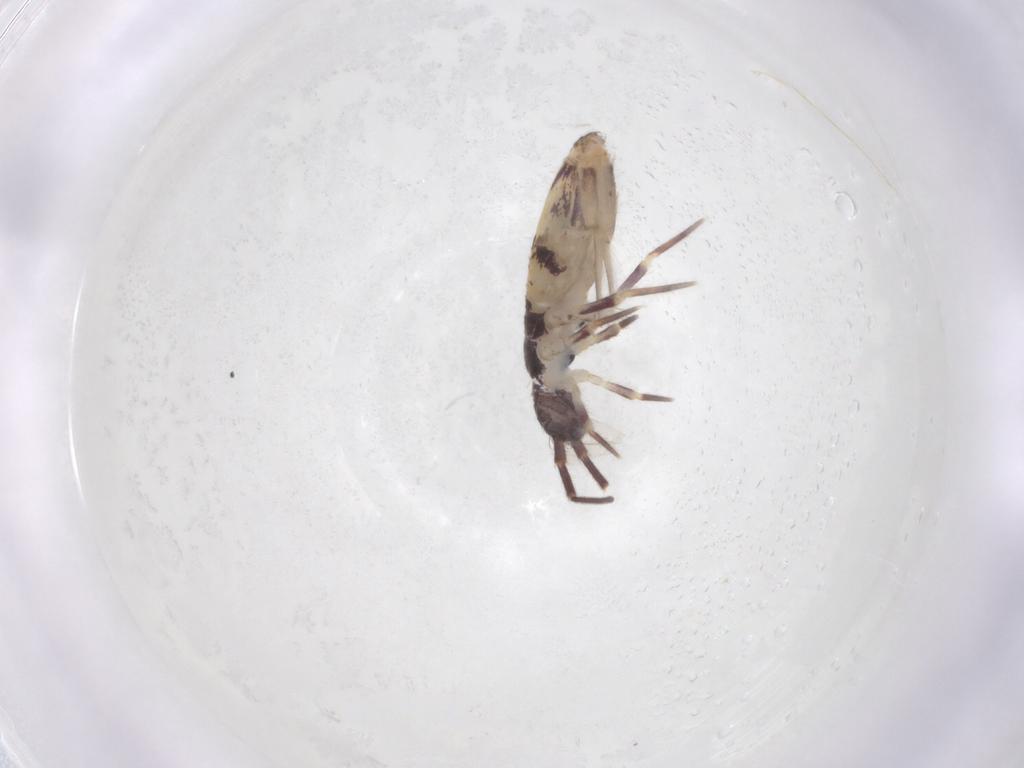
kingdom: Animalia
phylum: Arthropoda
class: Collembola
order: Entomobryomorpha
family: Entomobryidae
